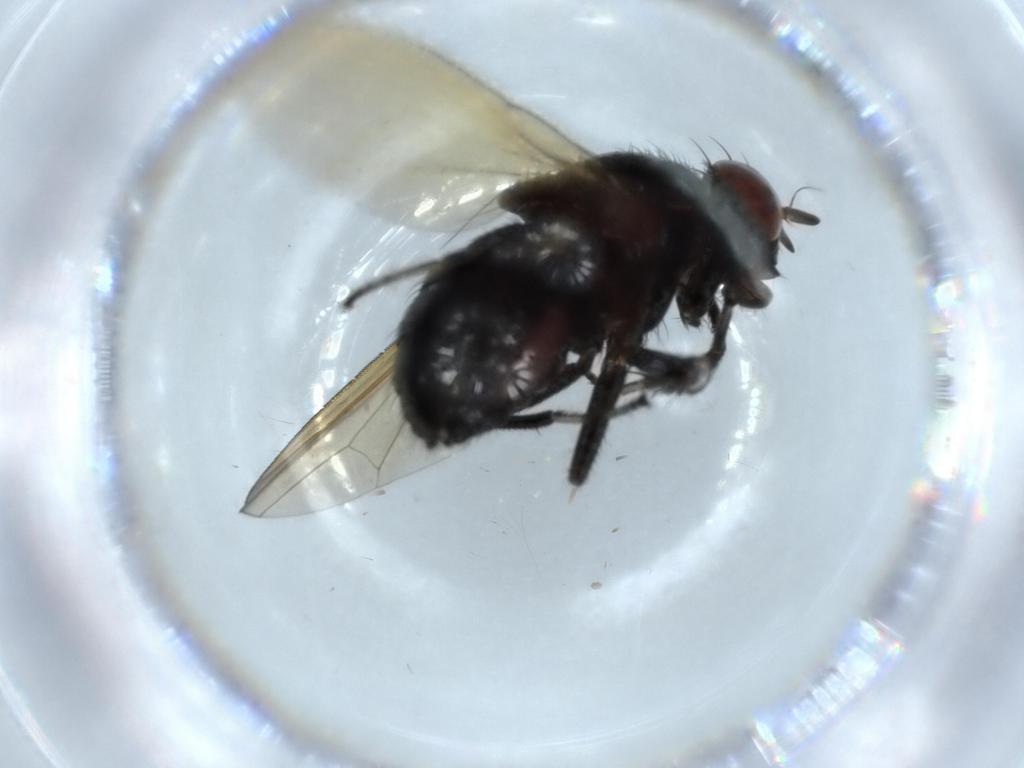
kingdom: Animalia
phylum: Arthropoda
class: Insecta
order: Diptera
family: Lauxaniidae
